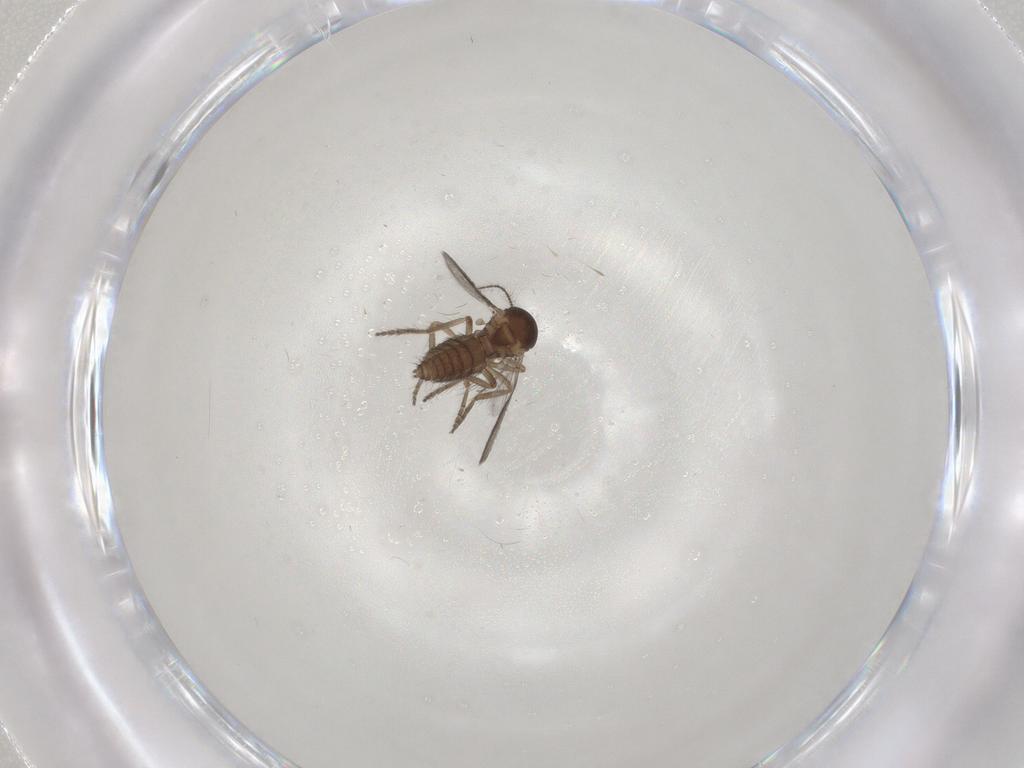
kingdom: Animalia
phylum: Arthropoda
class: Insecta
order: Diptera
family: Ceratopogonidae
